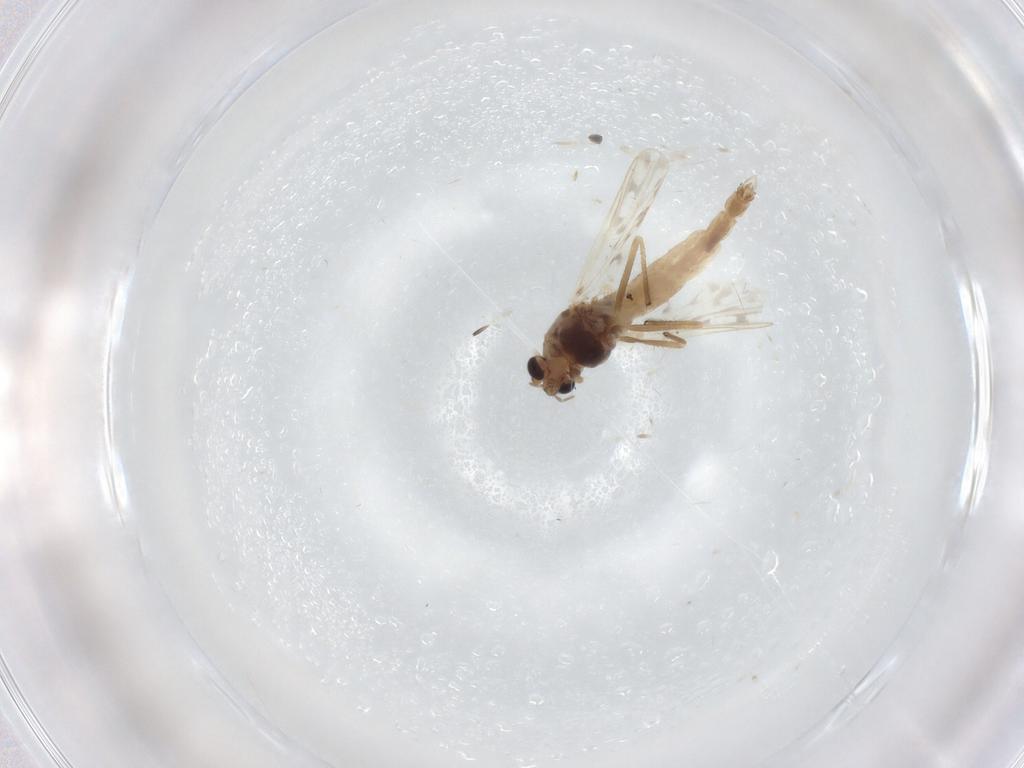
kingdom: Animalia
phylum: Arthropoda
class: Insecta
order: Diptera
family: Chironomidae
